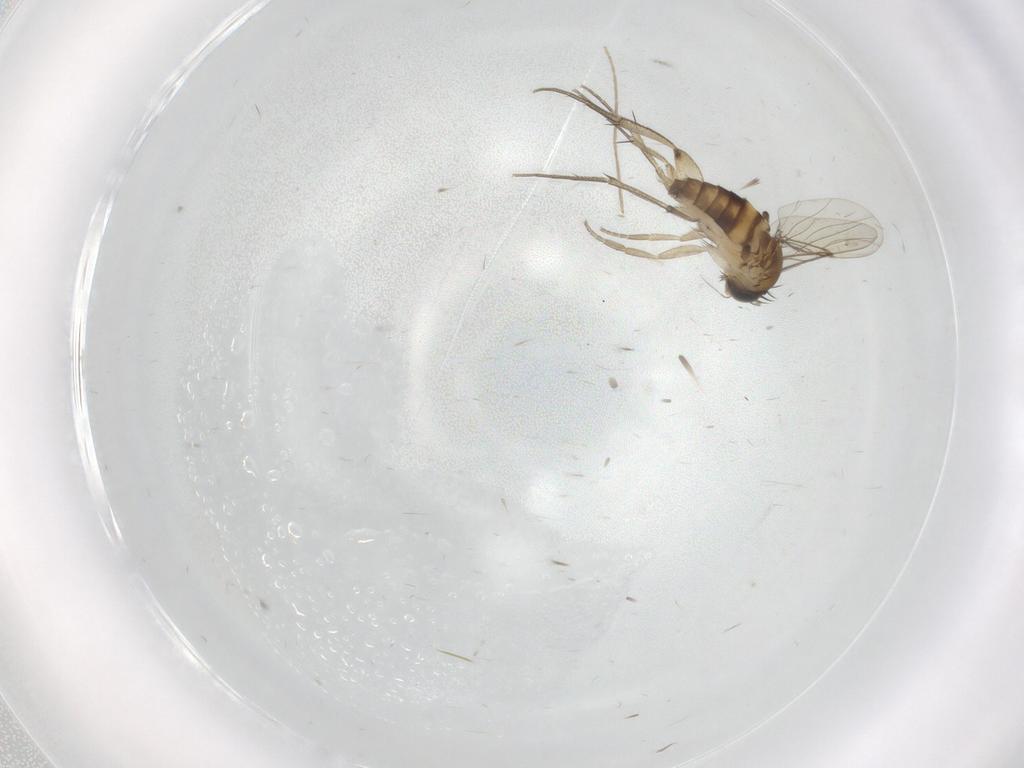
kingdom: Animalia
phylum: Arthropoda
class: Insecta
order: Diptera
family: Phoridae
